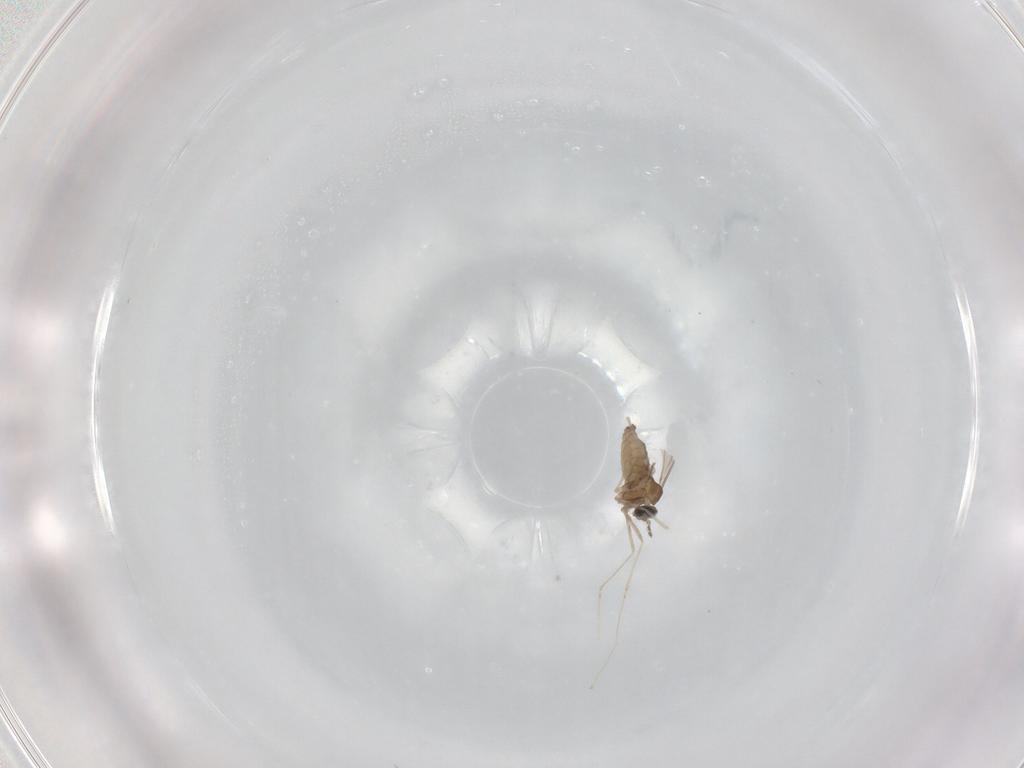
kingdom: Animalia
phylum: Arthropoda
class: Insecta
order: Diptera
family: Cecidomyiidae
